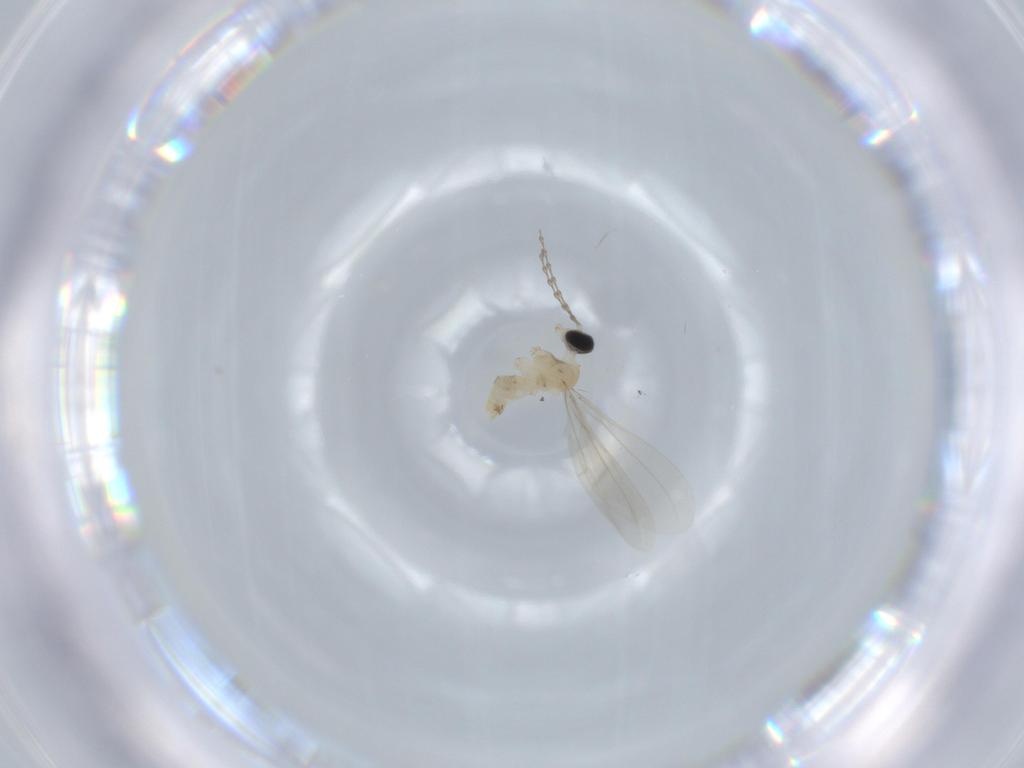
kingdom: Animalia
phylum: Arthropoda
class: Insecta
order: Diptera
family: Cecidomyiidae
